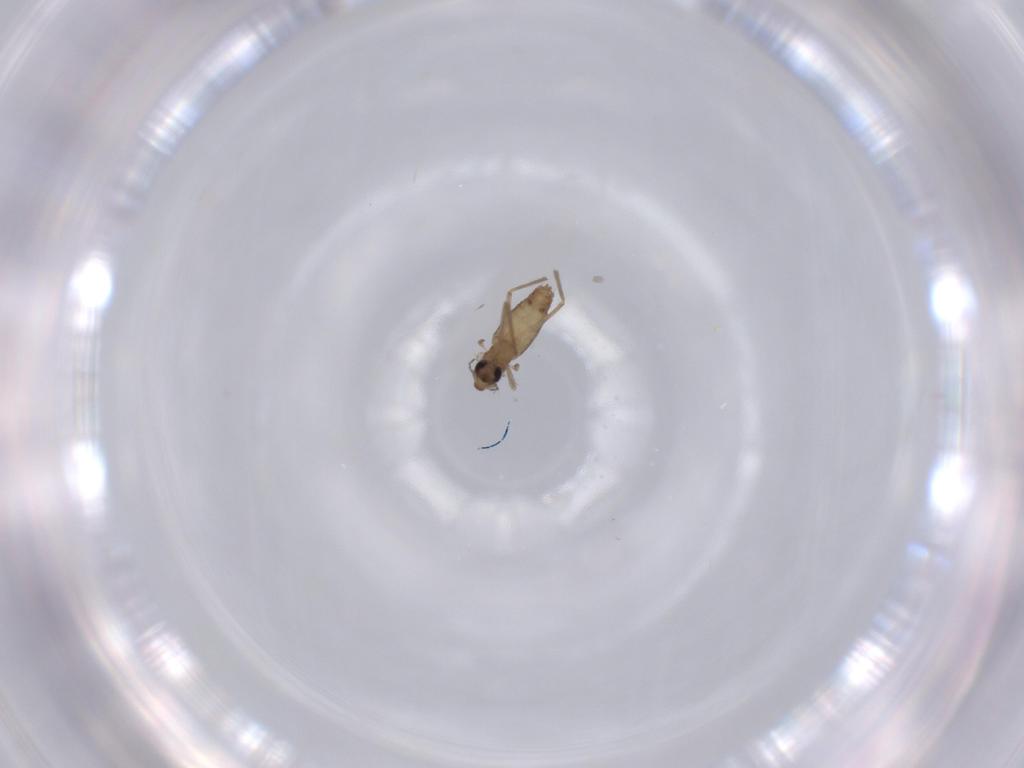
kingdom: Animalia
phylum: Arthropoda
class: Insecta
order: Diptera
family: Chironomidae
